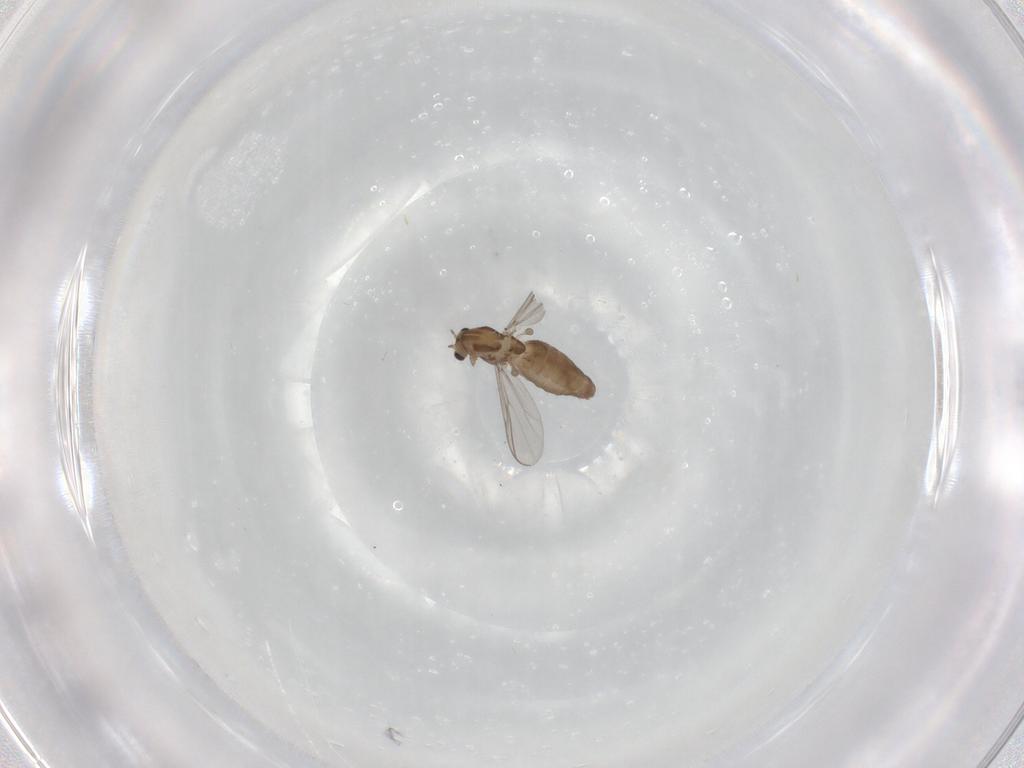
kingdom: Animalia
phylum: Arthropoda
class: Insecta
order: Diptera
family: Chironomidae
